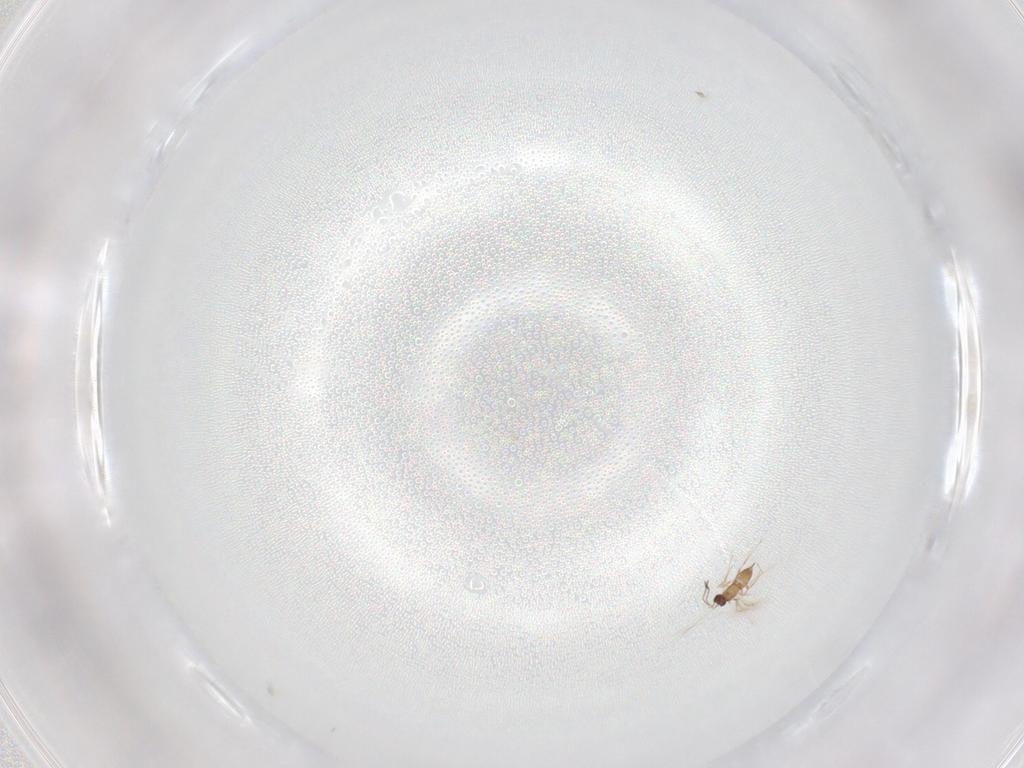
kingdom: Animalia
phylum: Arthropoda
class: Insecta
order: Hymenoptera
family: Mymaridae
